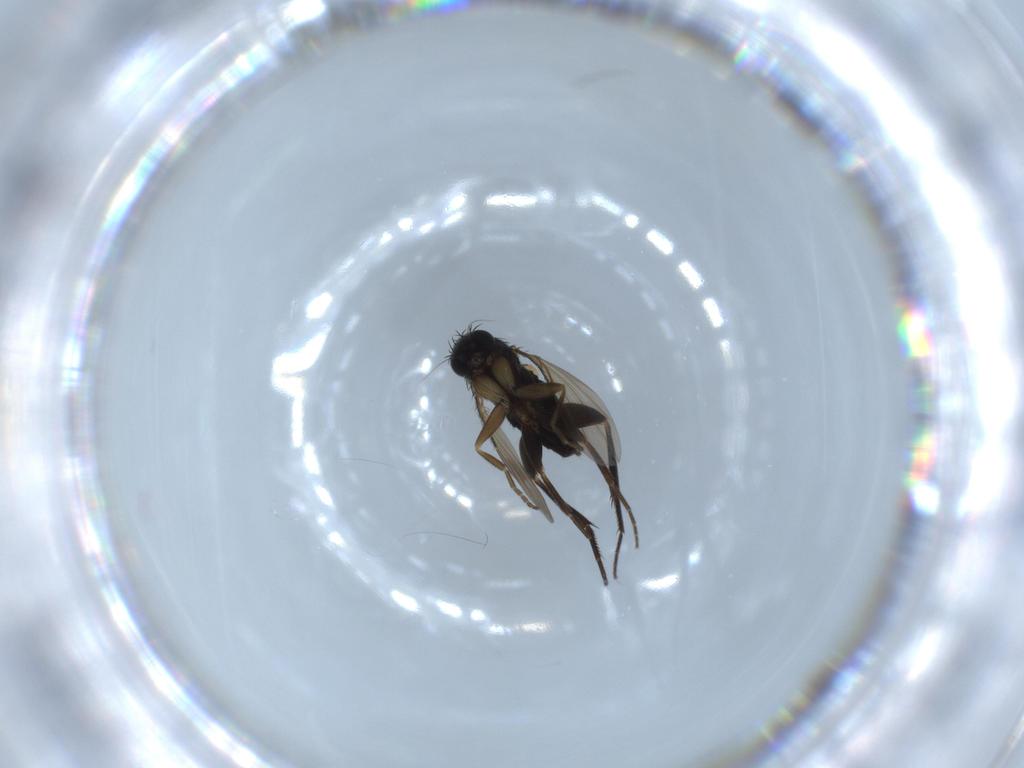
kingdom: Animalia
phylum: Arthropoda
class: Insecta
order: Diptera
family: Phoridae
